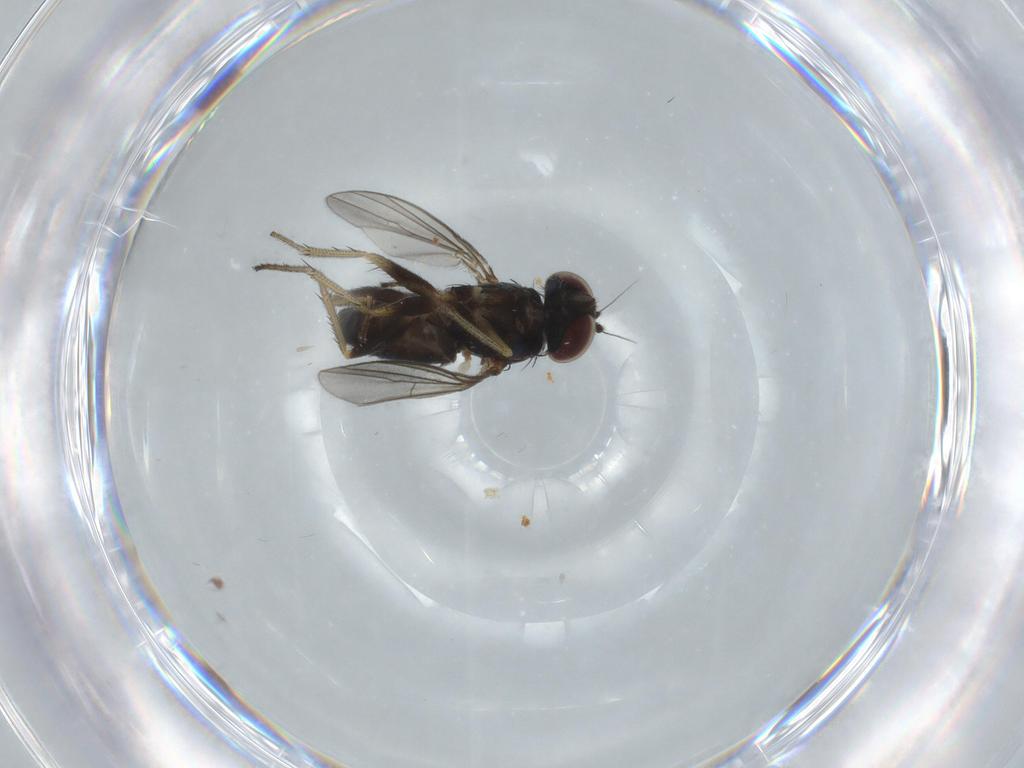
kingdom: Animalia
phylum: Arthropoda
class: Insecta
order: Diptera
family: Dolichopodidae
